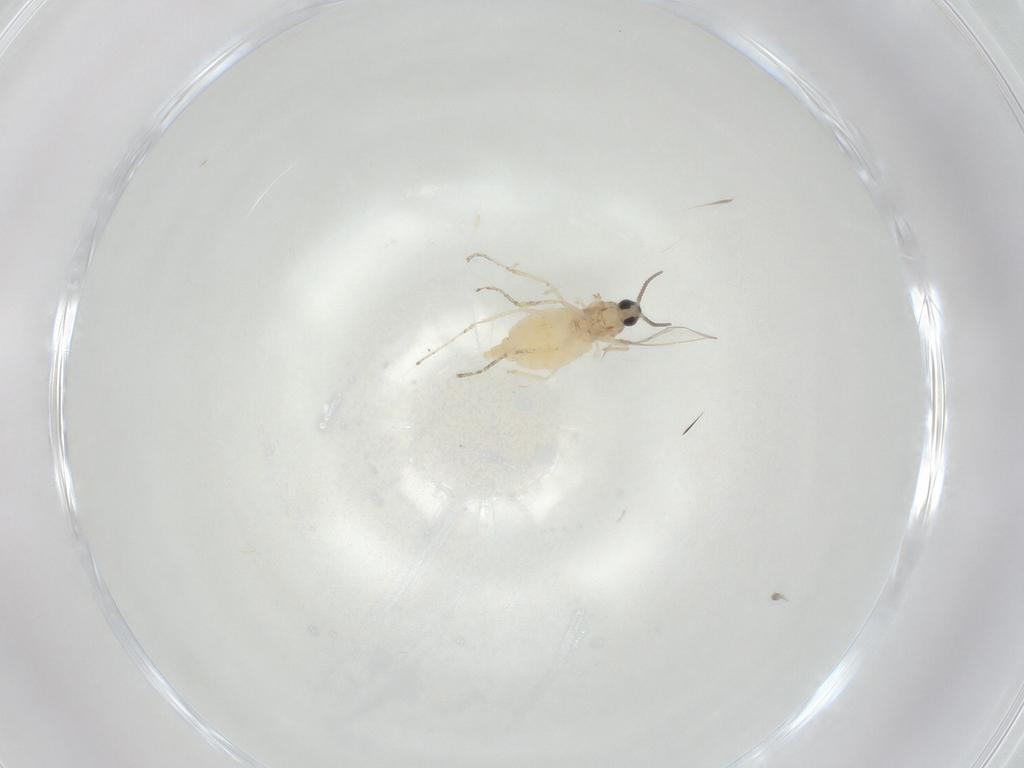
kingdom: Animalia
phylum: Arthropoda
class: Insecta
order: Diptera
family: Cecidomyiidae
